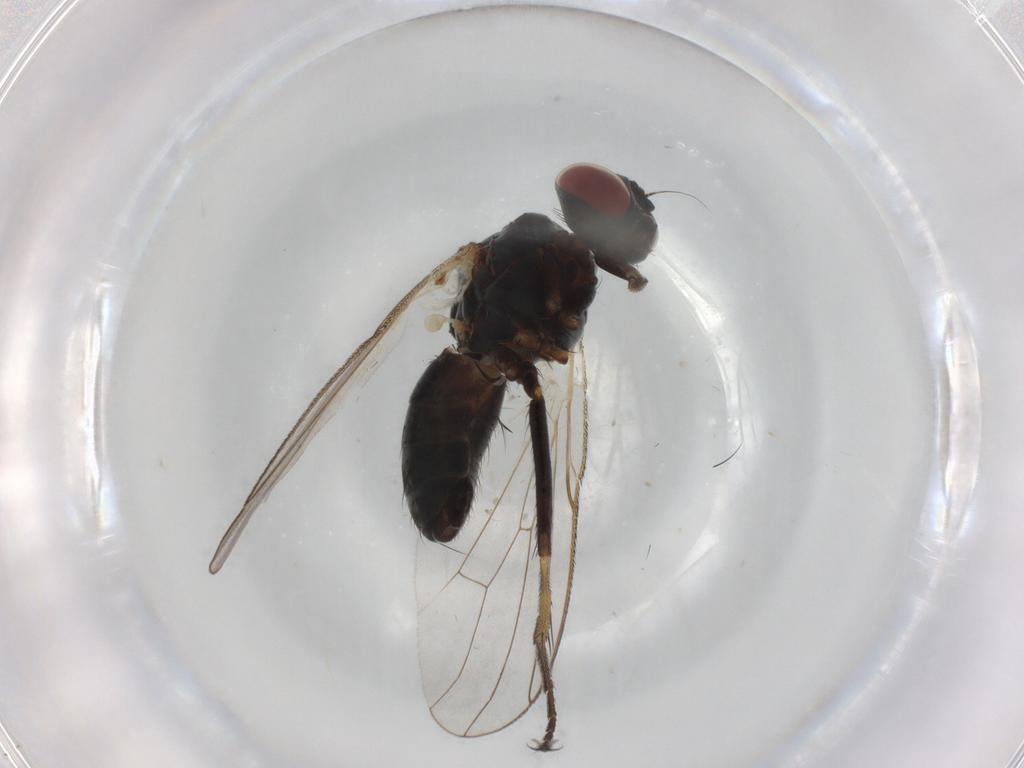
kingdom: Animalia
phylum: Arthropoda
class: Insecta
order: Diptera
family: Scatopsidae
